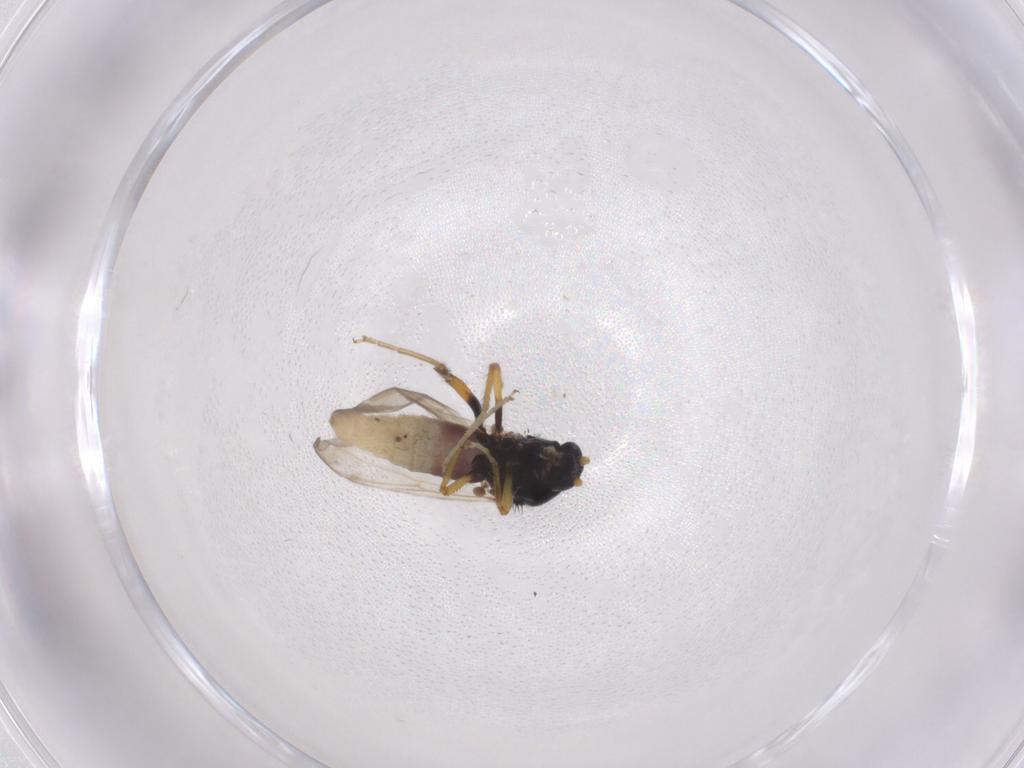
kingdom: Animalia
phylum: Arthropoda
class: Insecta
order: Diptera
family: Ceratopogonidae
